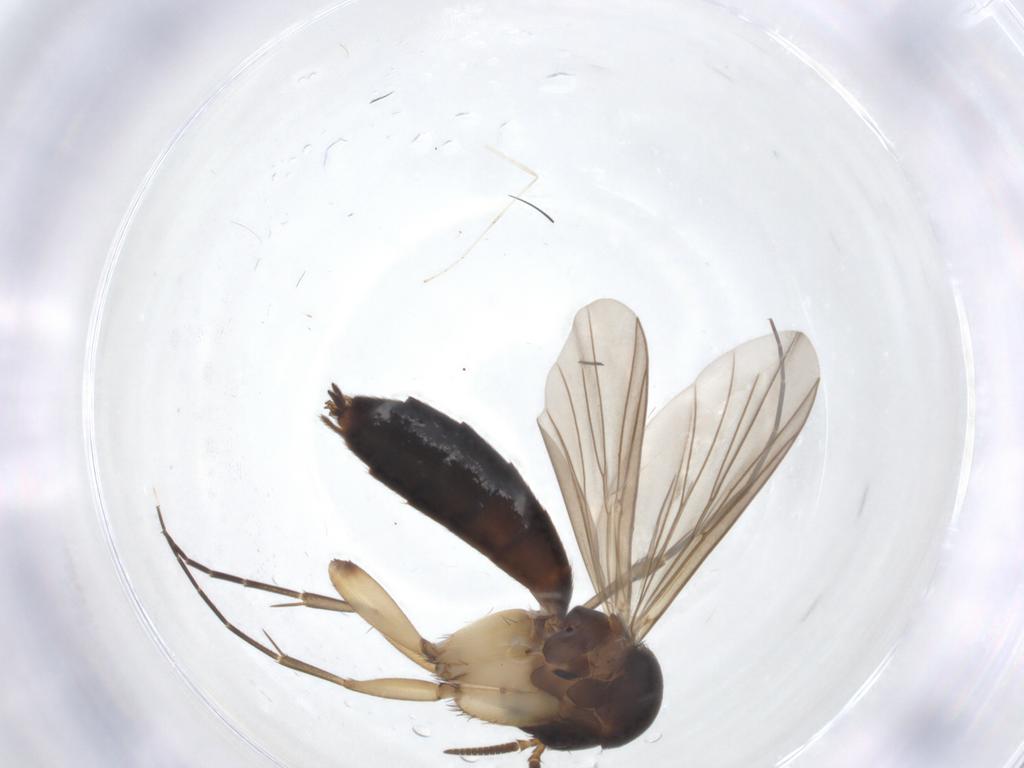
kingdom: Animalia
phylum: Arthropoda
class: Insecta
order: Diptera
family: Mycetophilidae
